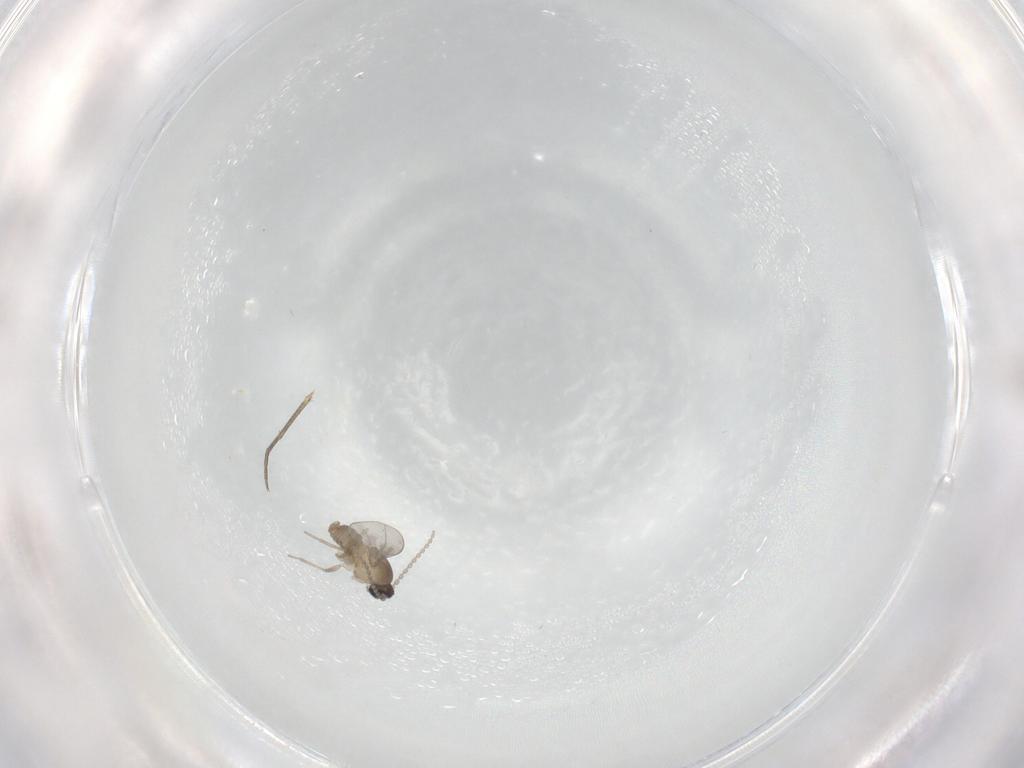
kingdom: Animalia
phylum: Arthropoda
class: Insecta
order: Diptera
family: Cecidomyiidae
